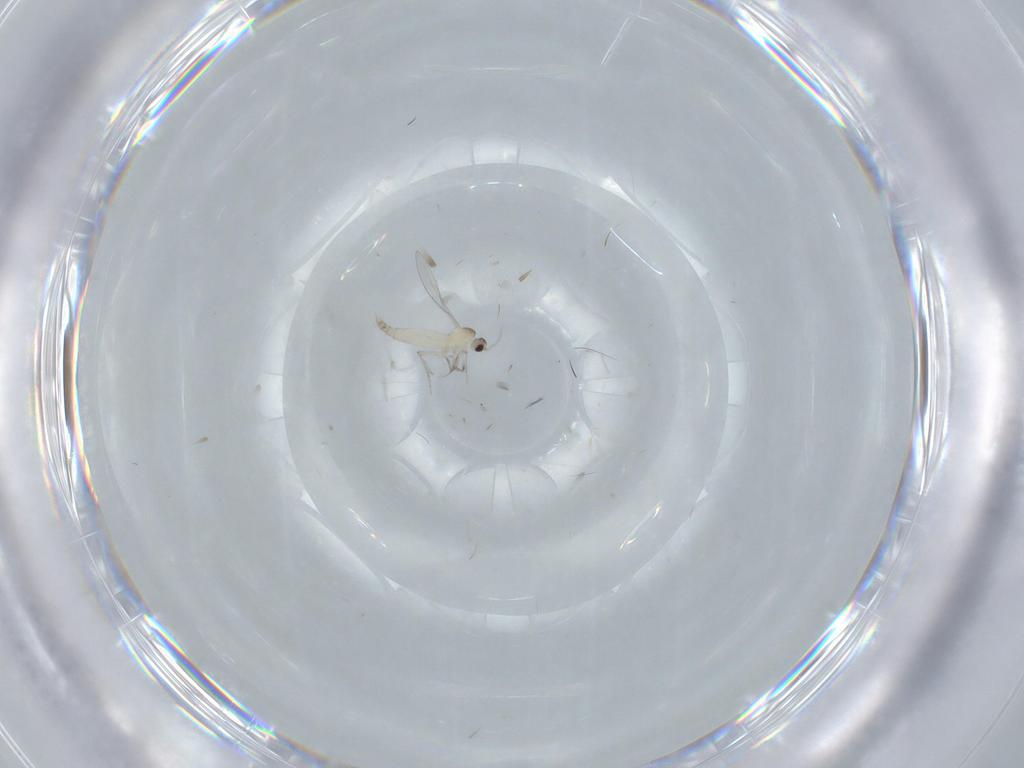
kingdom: Animalia
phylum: Arthropoda
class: Insecta
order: Diptera
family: Cecidomyiidae
